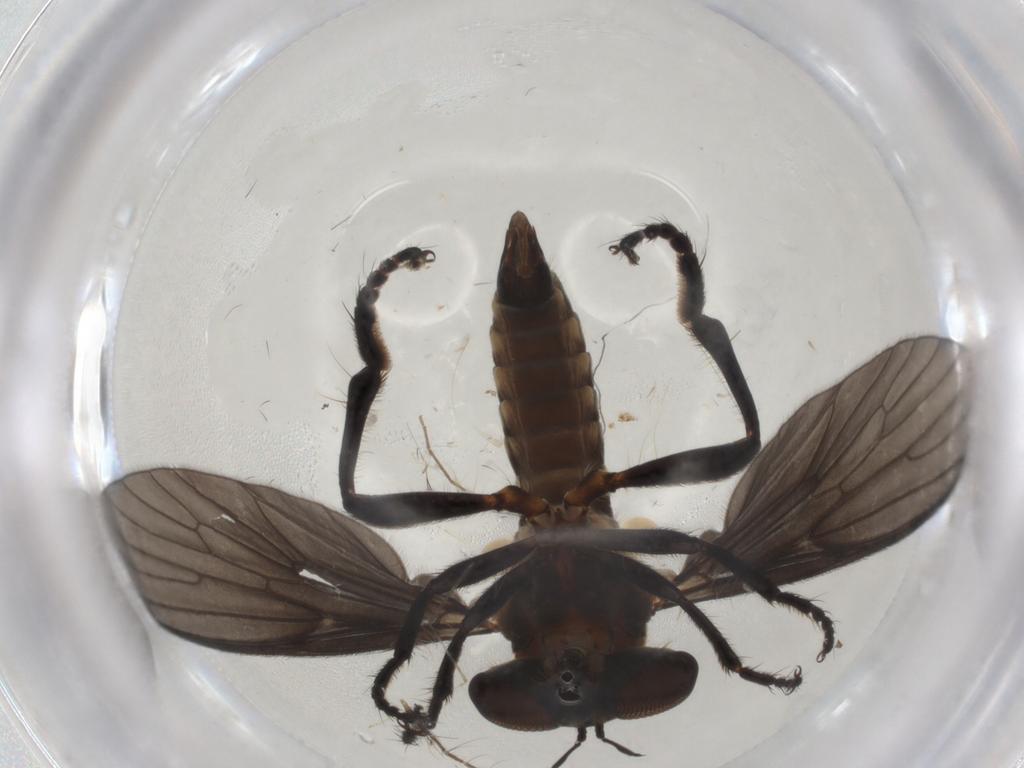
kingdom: Animalia
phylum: Arthropoda
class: Insecta
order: Diptera
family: Asilidae
